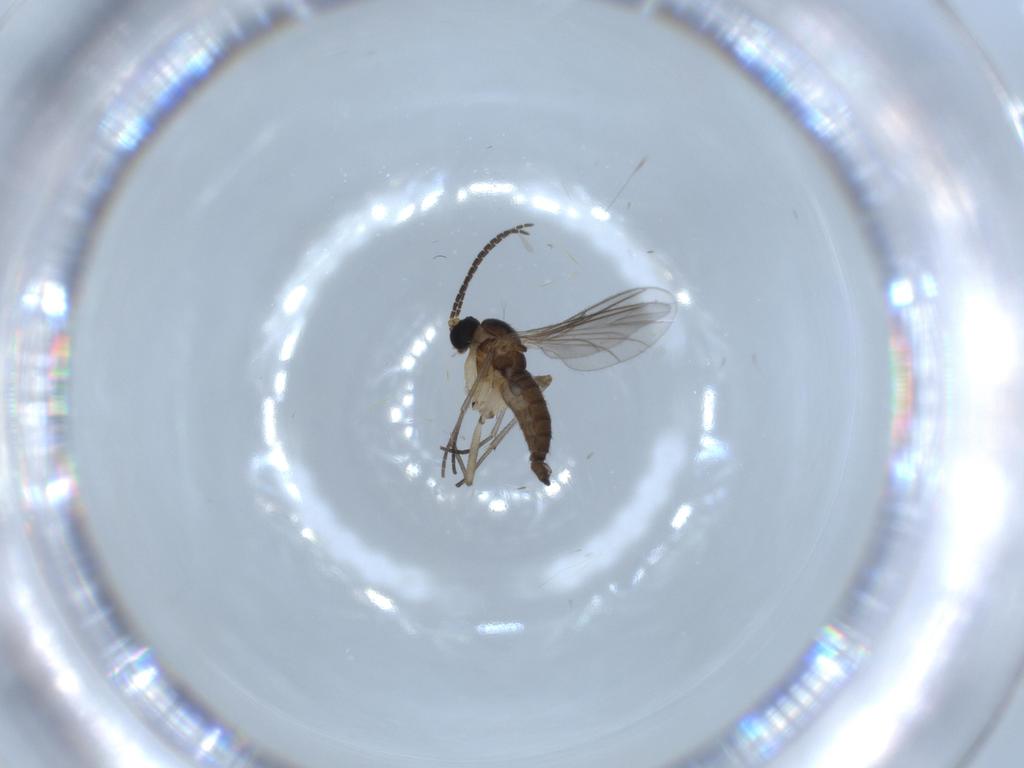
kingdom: Animalia
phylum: Arthropoda
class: Insecta
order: Diptera
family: Sciaridae
